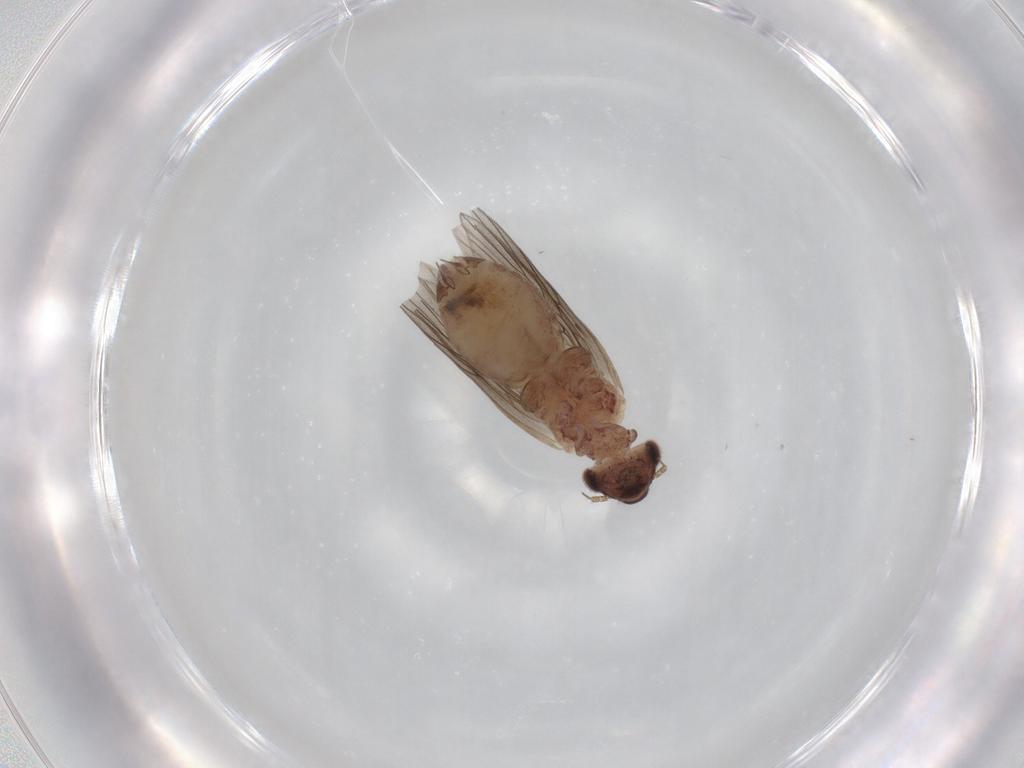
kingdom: Animalia
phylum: Arthropoda
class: Insecta
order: Psocodea
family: Lepidopsocidae
